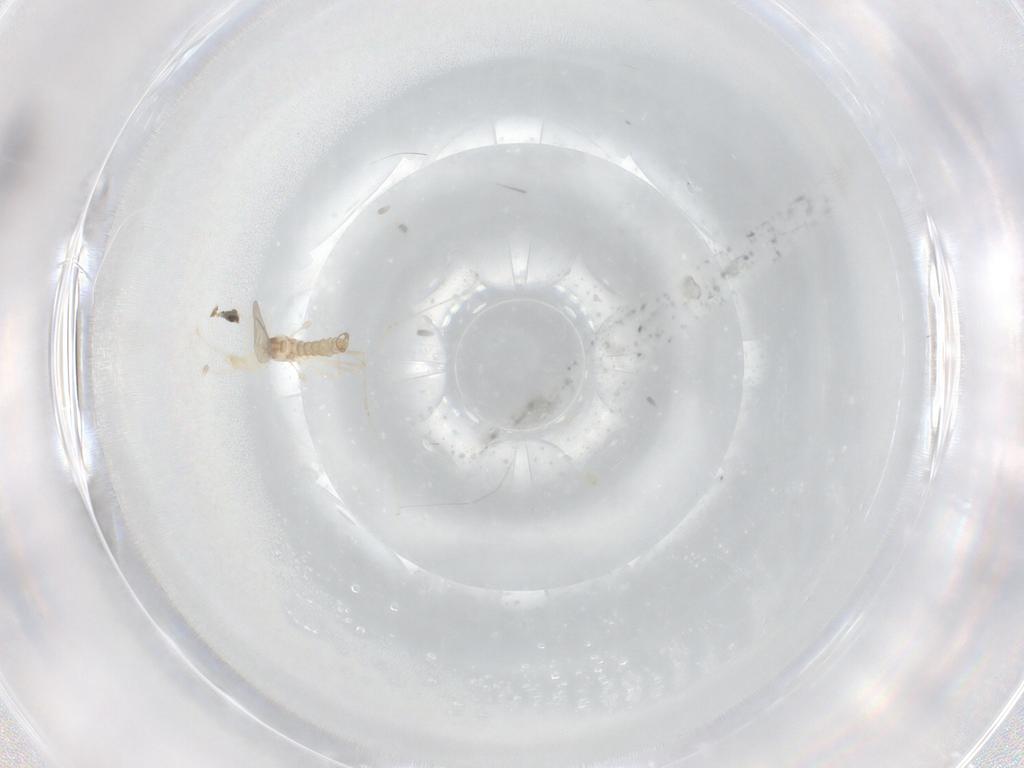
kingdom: Animalia
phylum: Arthropoda
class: Insecta
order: Diptera
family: Cecidomyiidae
